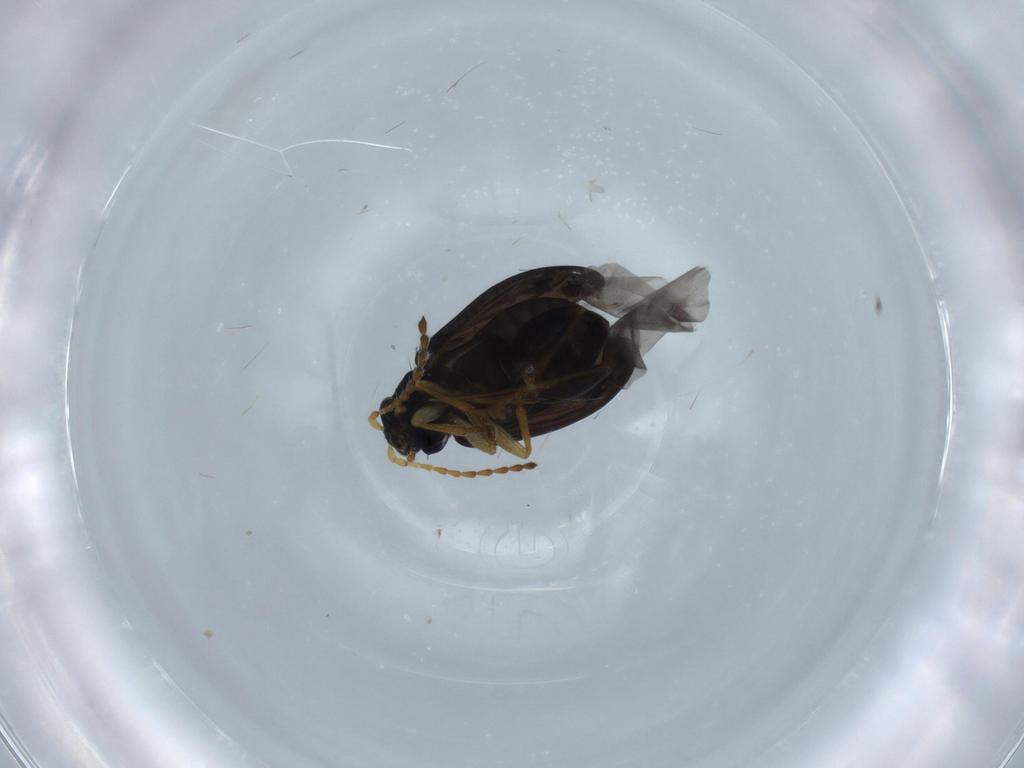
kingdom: Animalia
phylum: Arthropoda
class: Insecta
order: Coleoptera
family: Chrysomelidae
